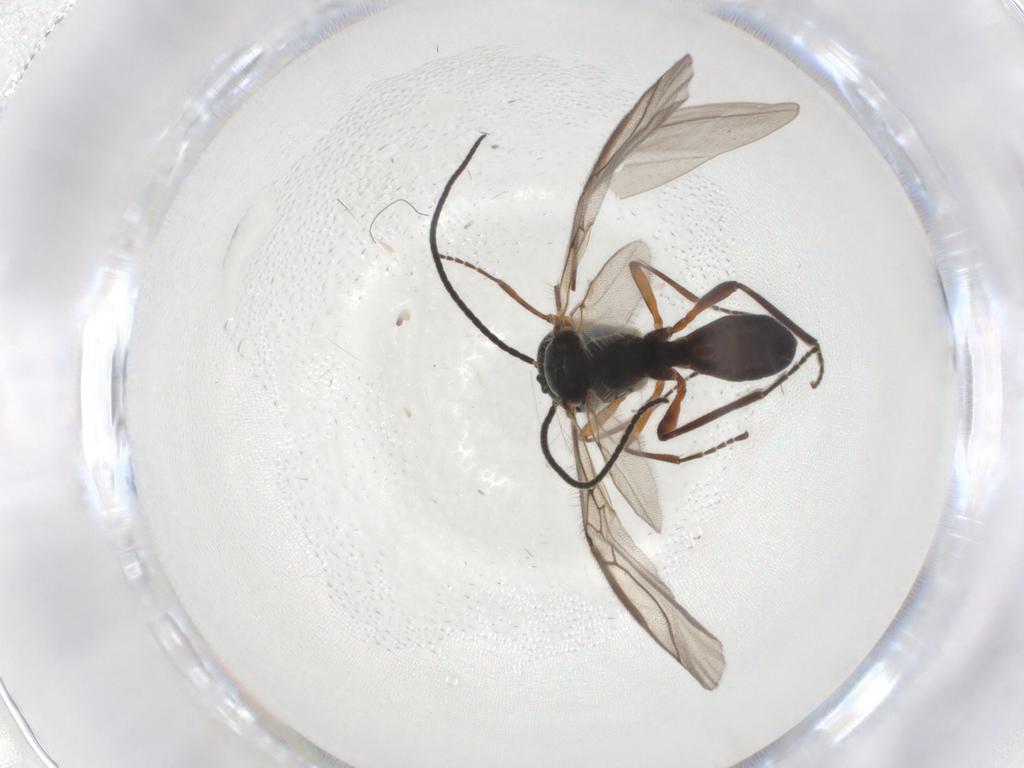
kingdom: Animalia
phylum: Arthropoda
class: Insecta
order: Hymenoptera
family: Braconidae
